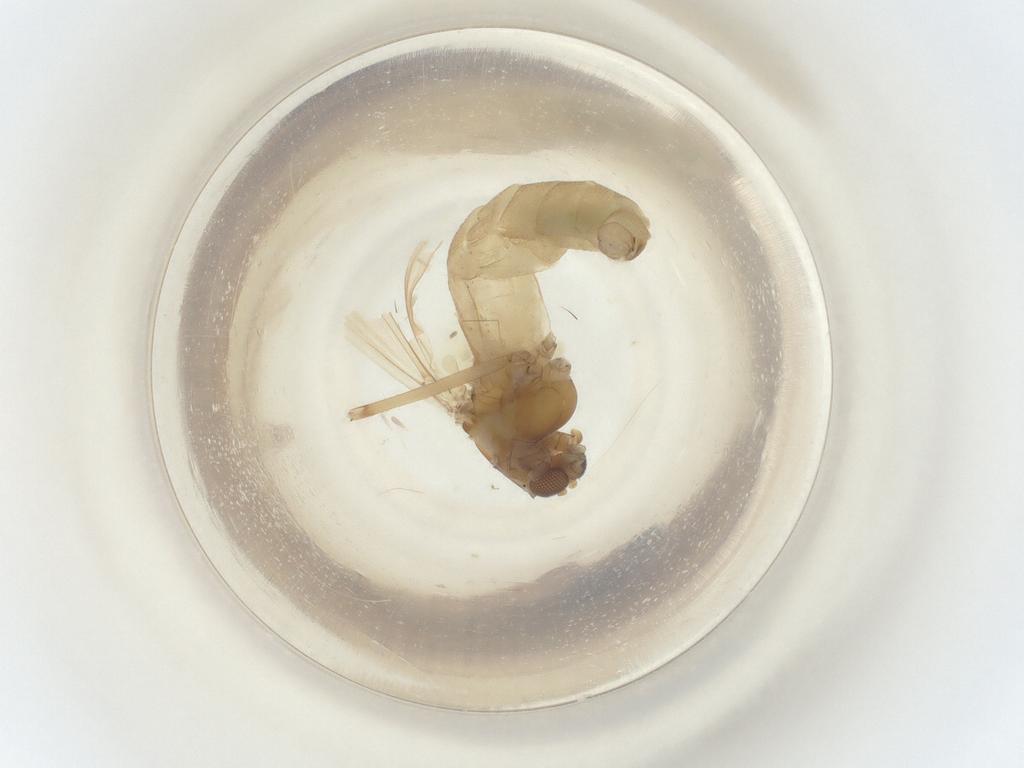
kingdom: Animalia
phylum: Arthropoda
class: Insecta
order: Diptera
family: Chironomidae
